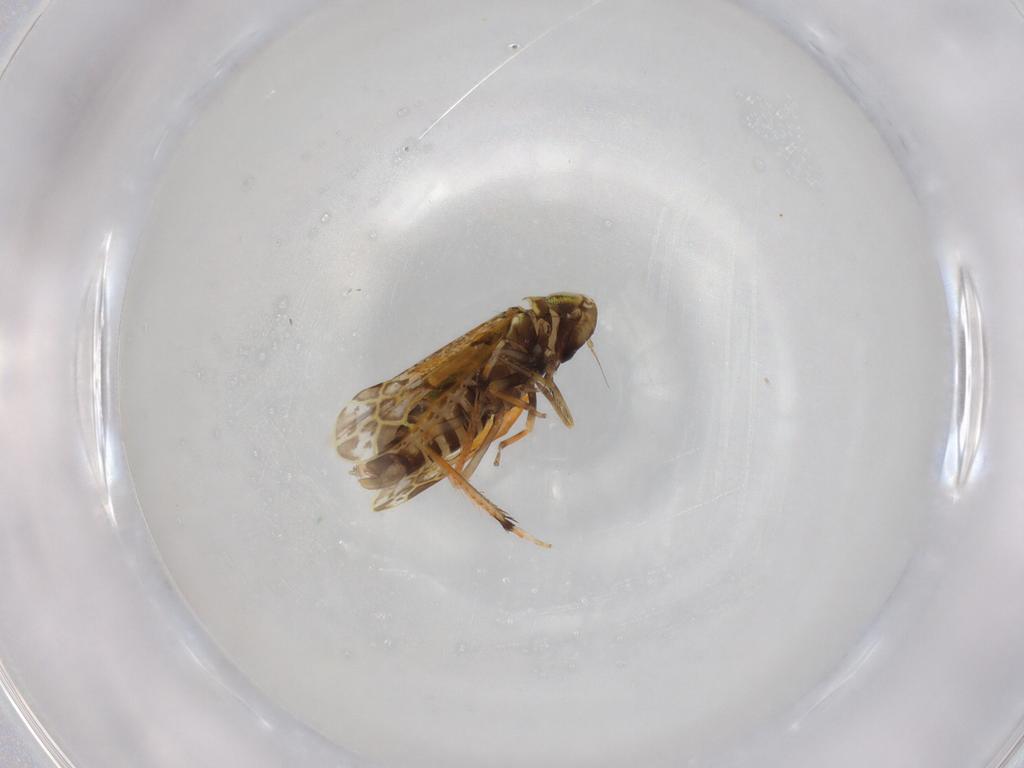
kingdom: Animalia
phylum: Arthropoda
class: Insecta
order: Hemiptera
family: Cicadellidae
